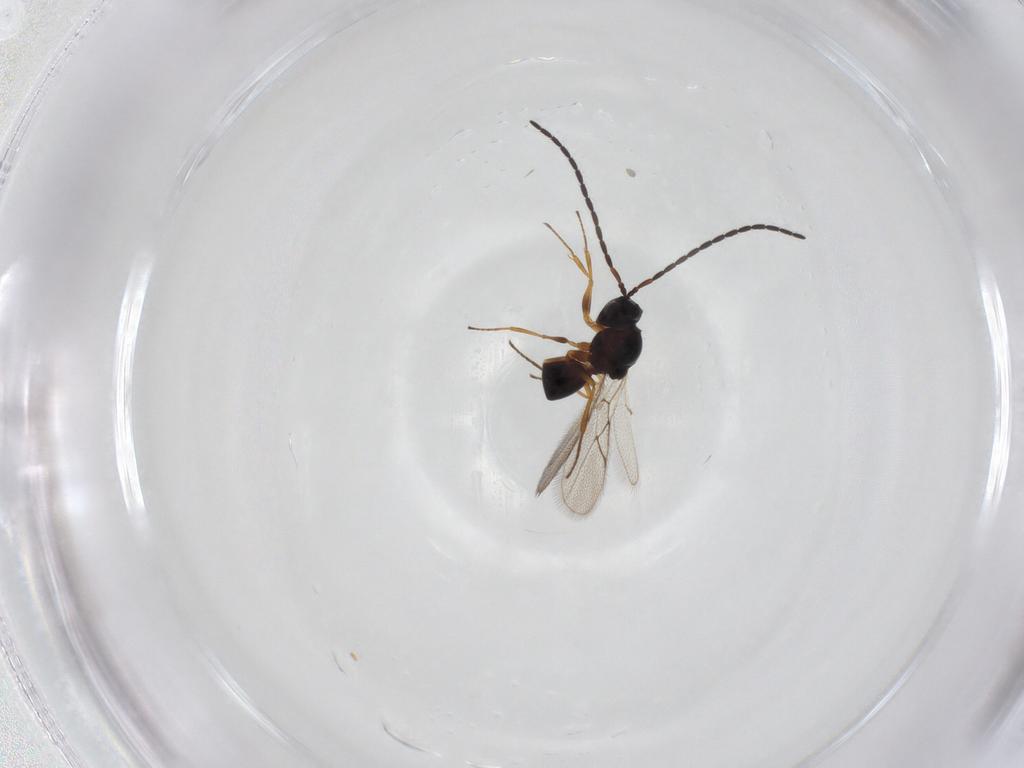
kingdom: Animalia
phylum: Arthropoda
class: Insecta
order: Hymenoptera
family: Figitidae
